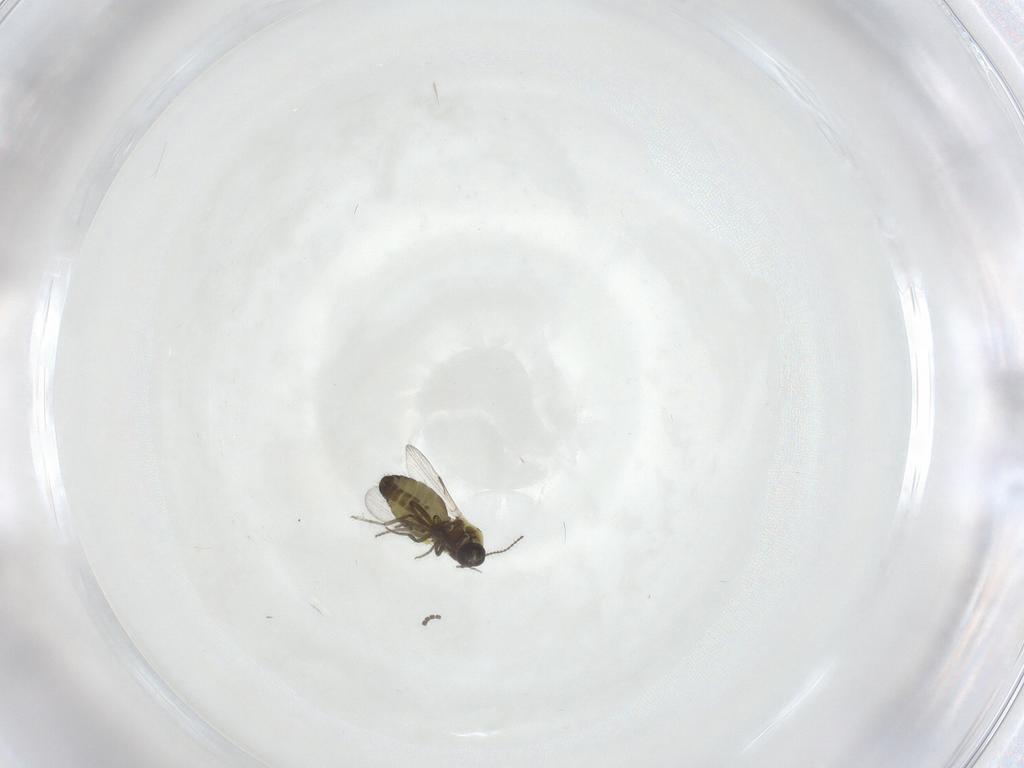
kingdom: Animalia
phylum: Arthropoda
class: Insecta
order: Diptera
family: Ceratopogonidae
